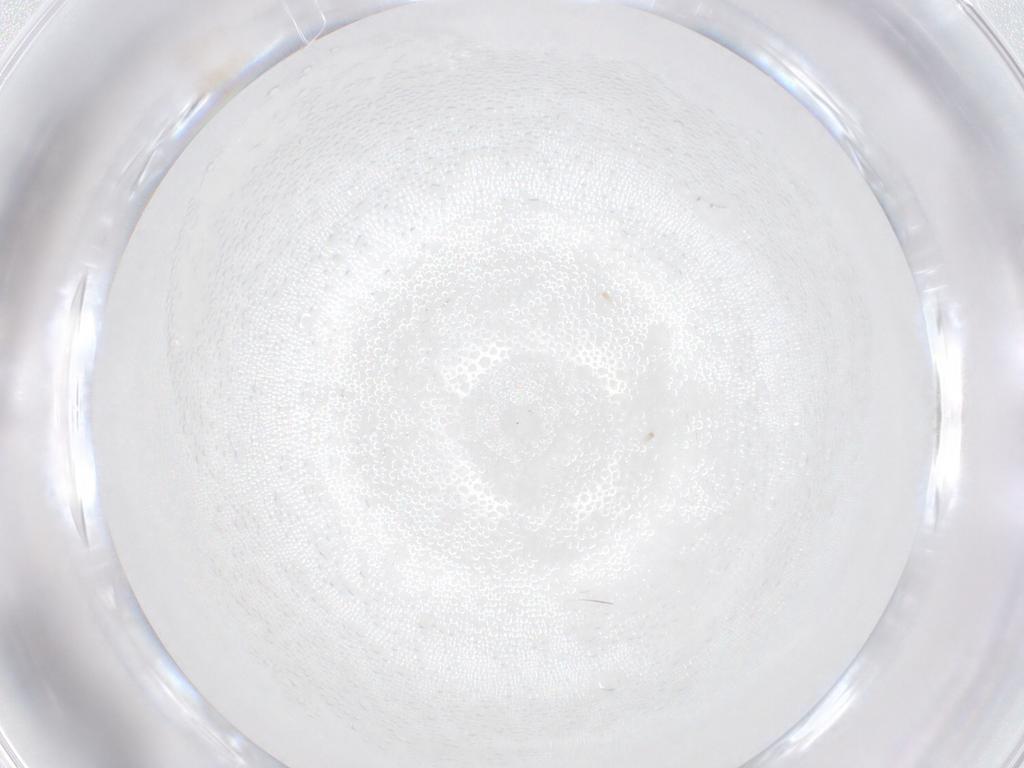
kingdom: Animalia
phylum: Arthropoda
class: Insecta
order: Hymenoptera
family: Mymaridae
